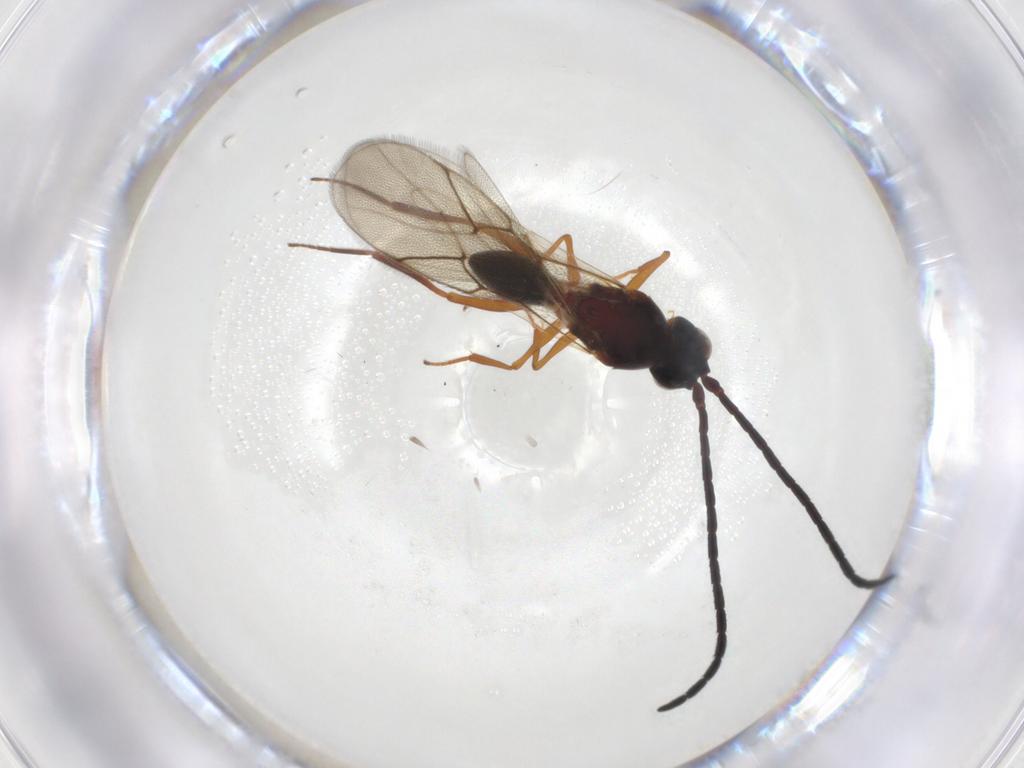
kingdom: Animalia
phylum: Arthropoda
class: Insecta
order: Hymenoptera
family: Figitidae
